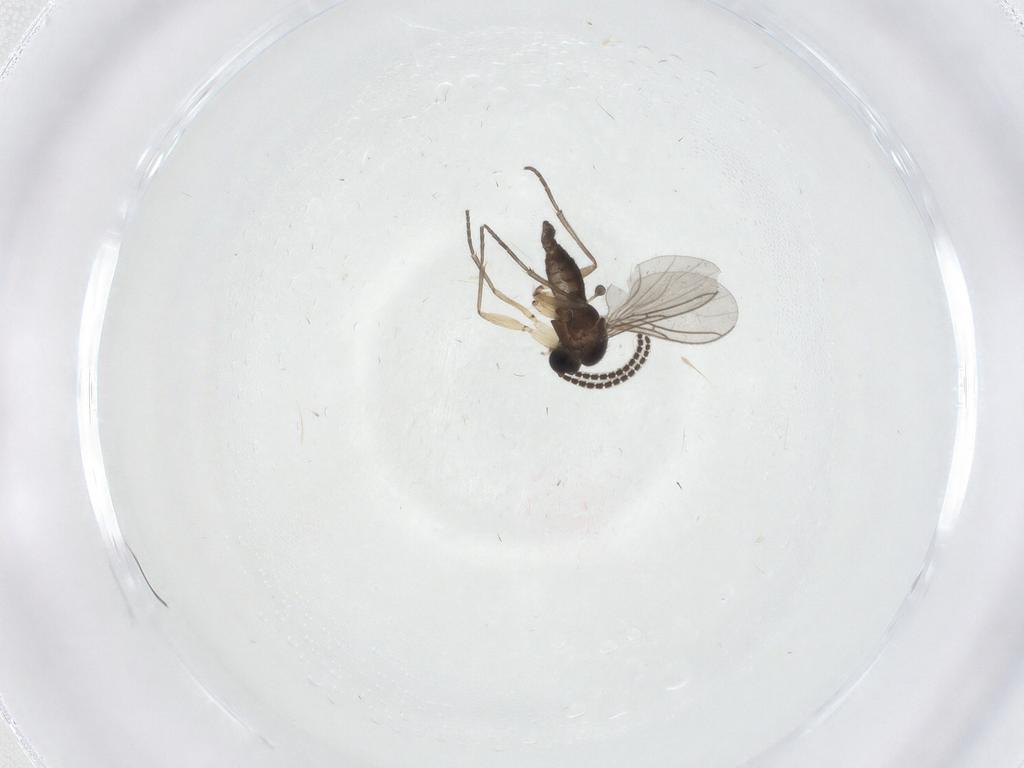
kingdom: Animalia
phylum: Arthropoda
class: Insecta
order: Diptera
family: Sciaridae
